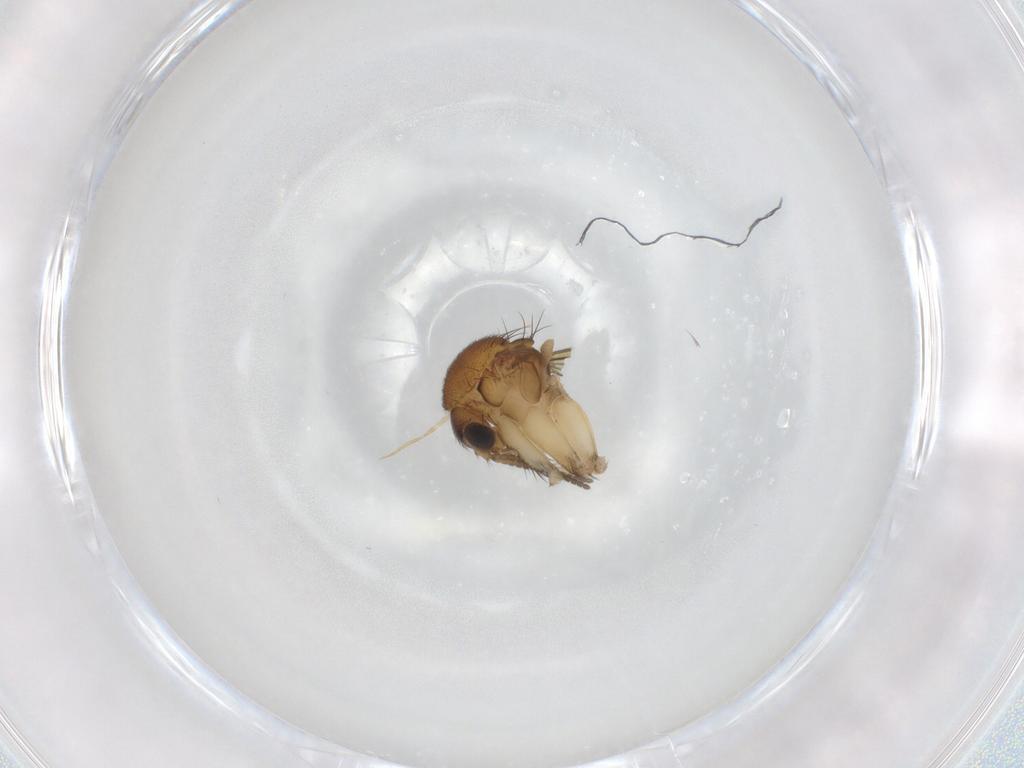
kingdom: Animalia
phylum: Arthropoda
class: Insecta
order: Diptera
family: Mycetophilidae
